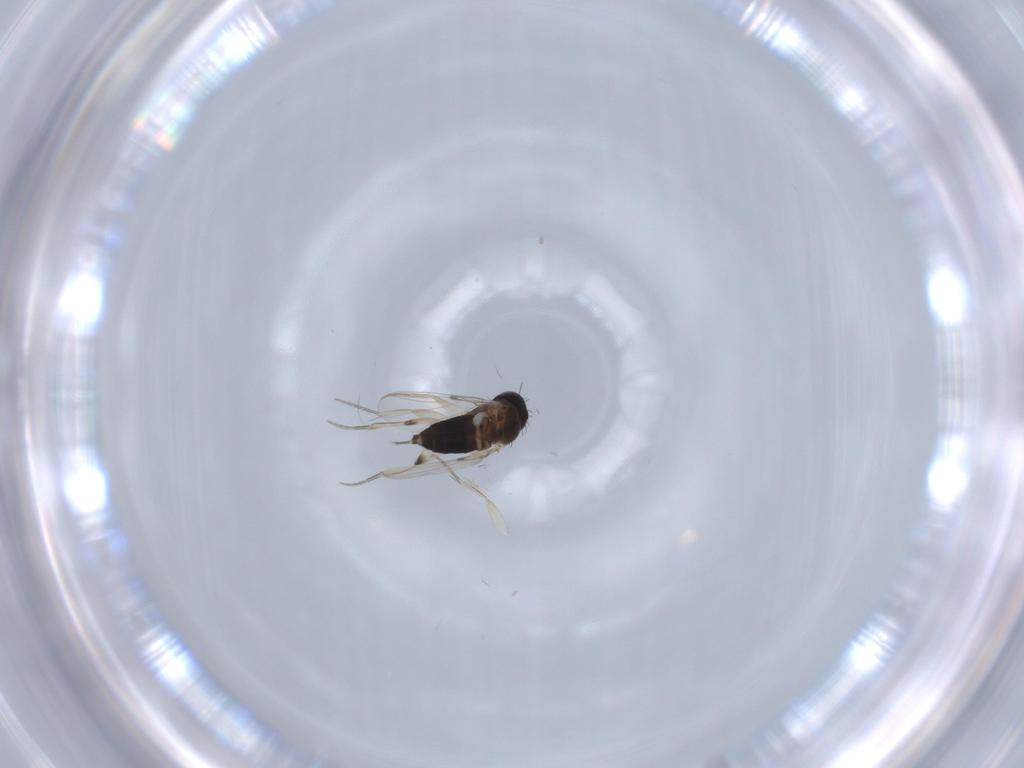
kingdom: Animalia
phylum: Arthropoda
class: Insecta
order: Diptera
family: Phoridae
